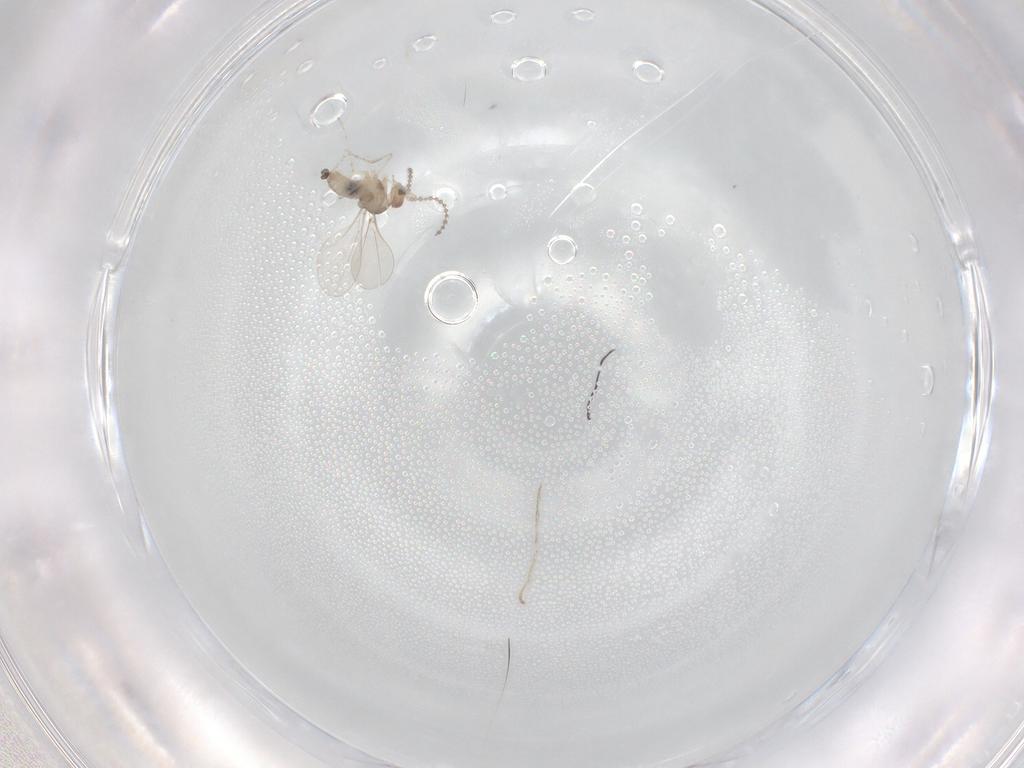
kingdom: Animalia
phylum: Arthropoda
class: Insecta
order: Diptera
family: Cecidomyiidae
